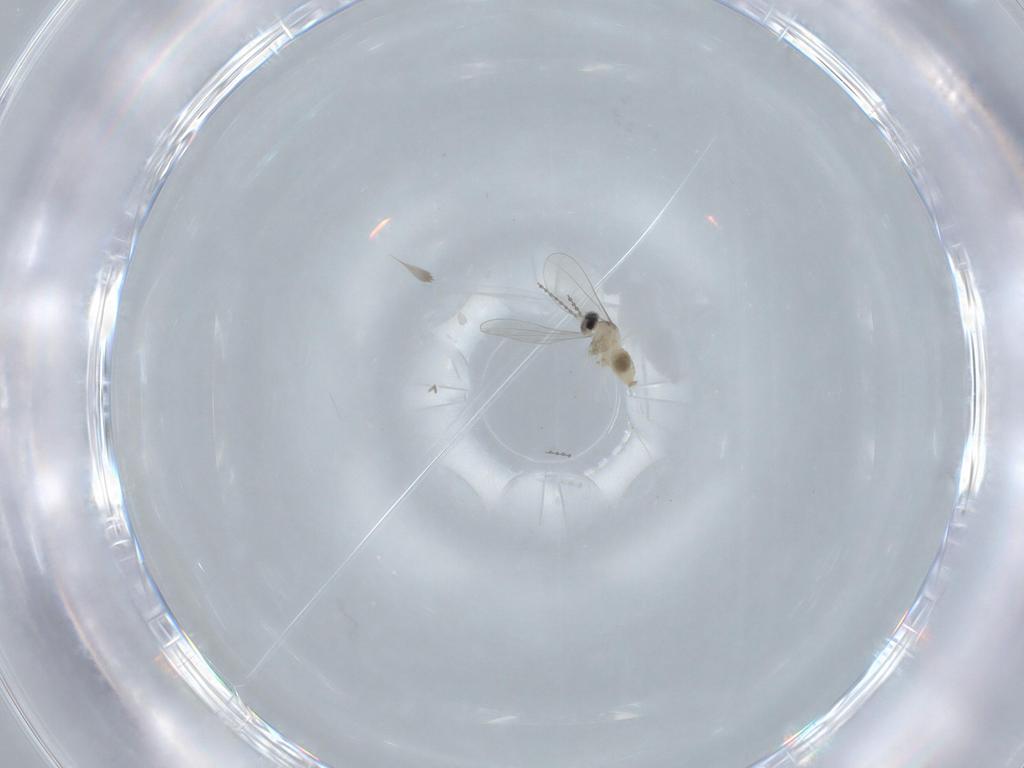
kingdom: Animalia
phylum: Arthropoda
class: Insecta
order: Diptera
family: Cecidomyiidae
